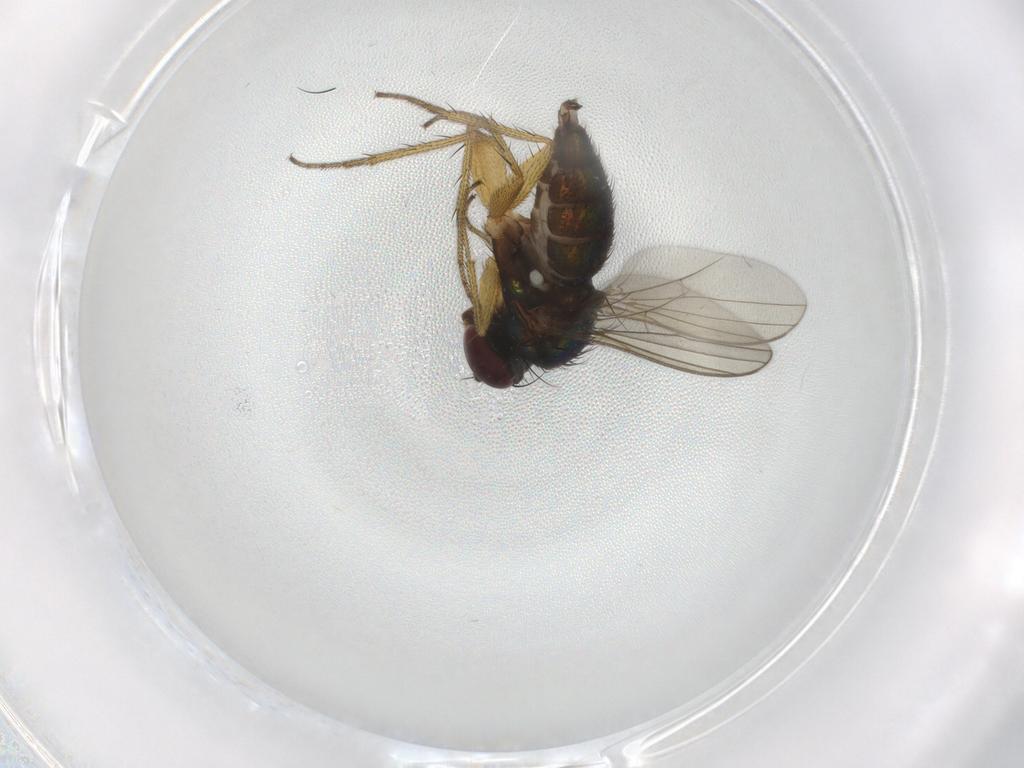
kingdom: Animalia
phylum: Arthropoda
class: Insecta
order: Diptera
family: Dolichopodidae
